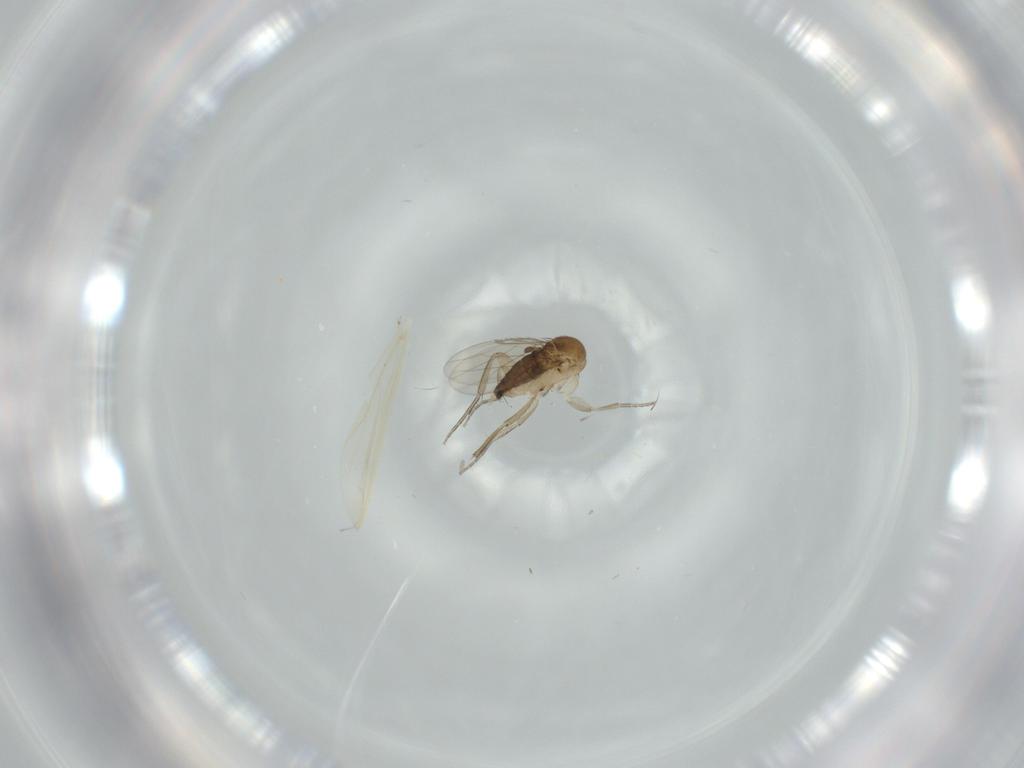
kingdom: Animalia
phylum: Arthropoda
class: Insecta
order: Diptera
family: Phoridae
